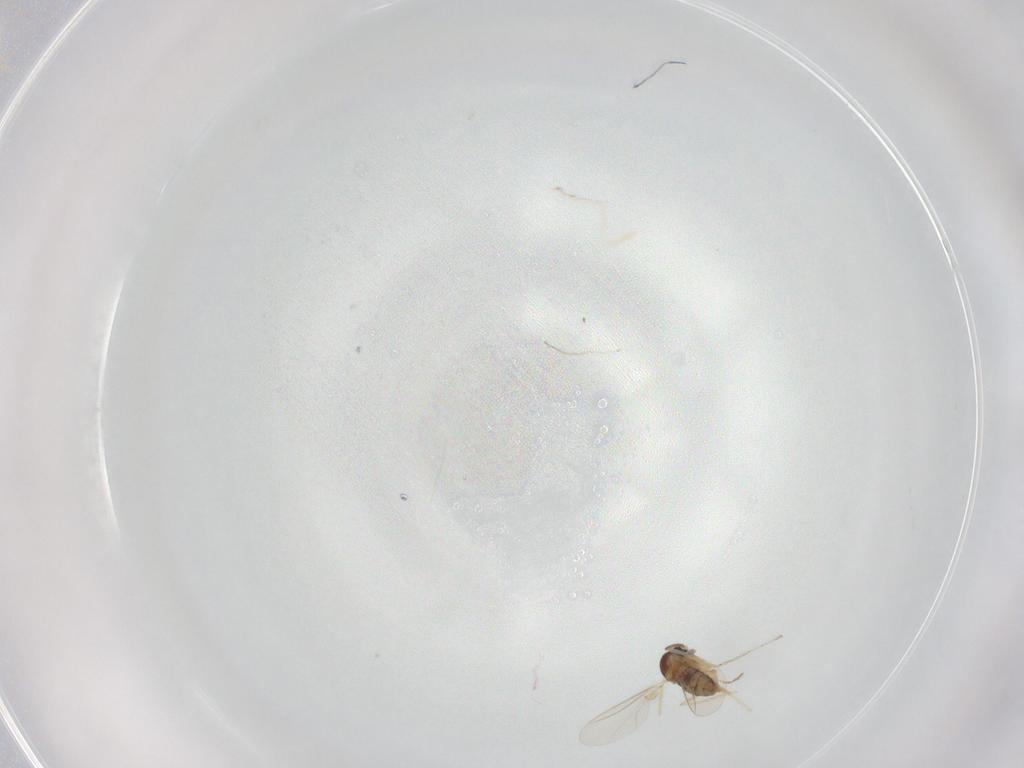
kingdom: Animalia
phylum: Arthropoda
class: Insecta
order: Diptera
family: Cecidomyiidae
